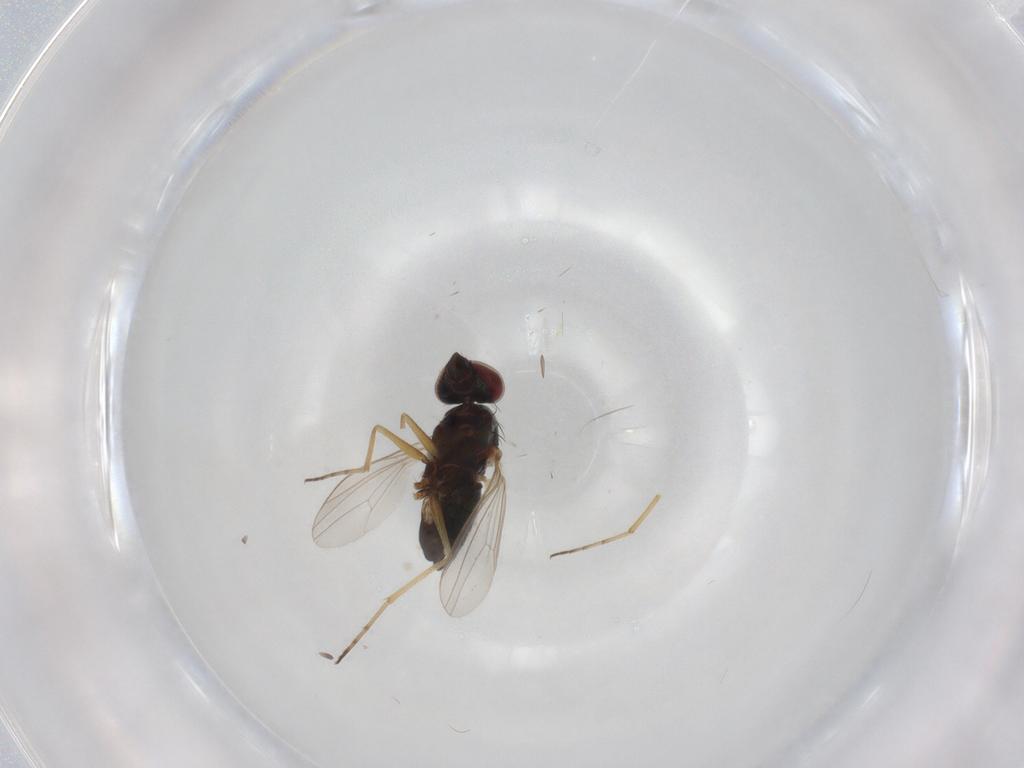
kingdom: Animalia
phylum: Arthropoda
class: Insecta
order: Diptera
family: Dolichopodidae
